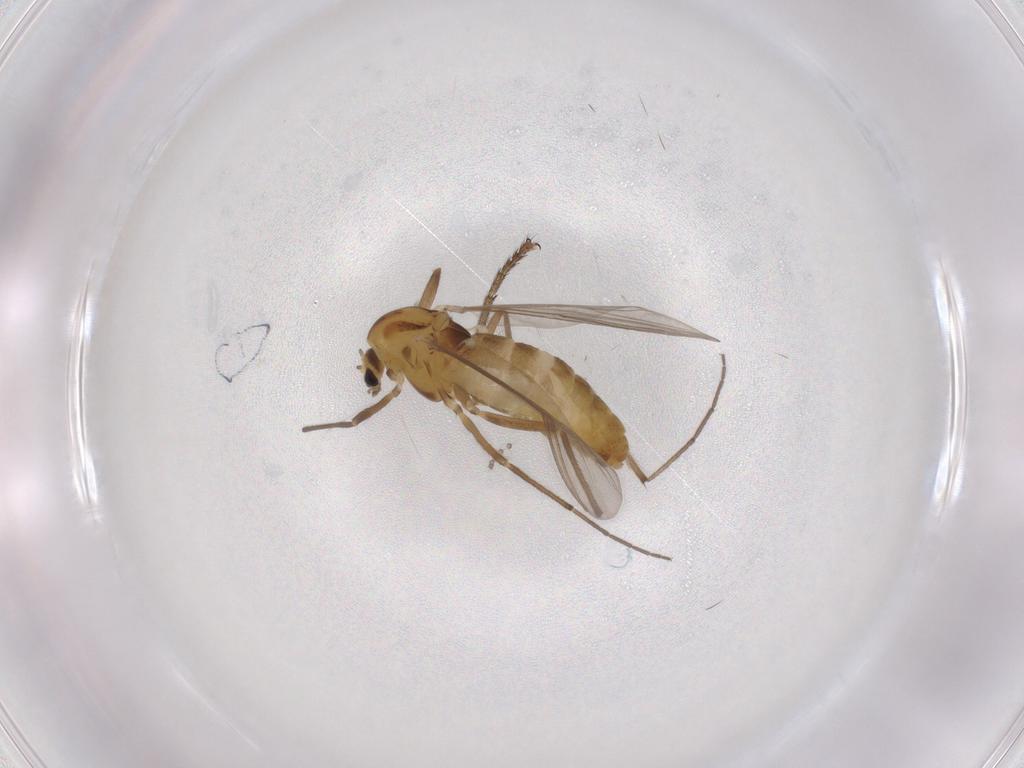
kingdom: Animalia
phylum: Arthropoda
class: Insecta
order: Diptera
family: Chironomidae
